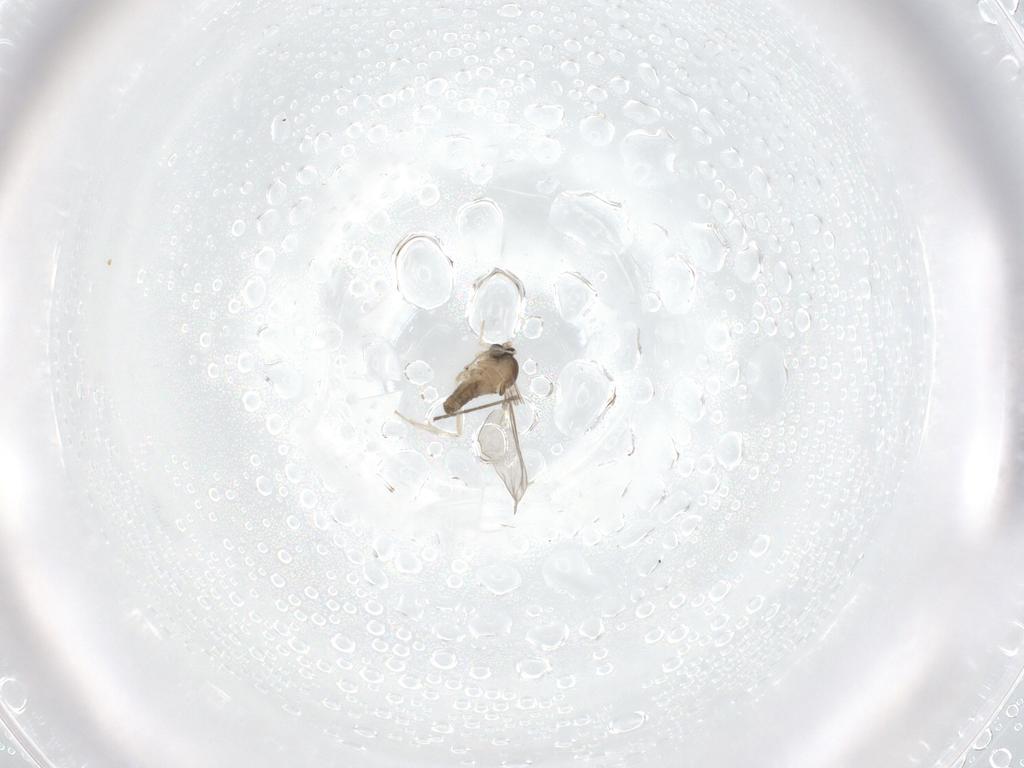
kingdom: Animalia
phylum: Arthropoda
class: Insecta
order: Diptera
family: Cecidomyiidae
